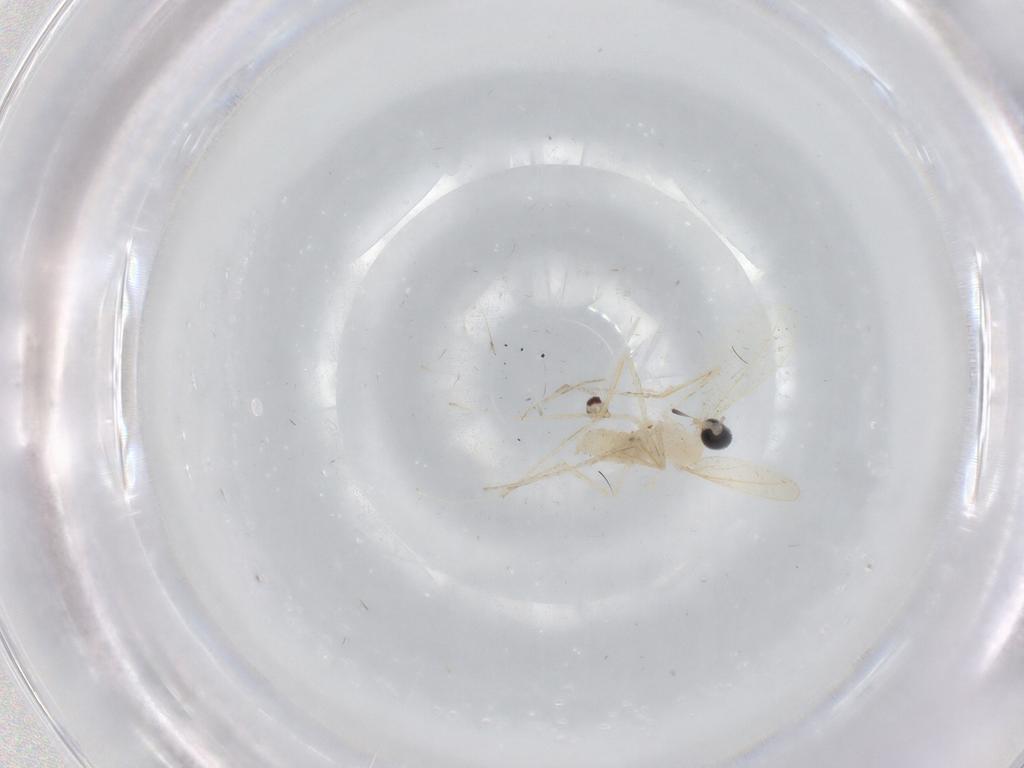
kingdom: Animalia
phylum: Arthropoda
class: Insecta
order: Diptera
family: Cecidomyiidae
